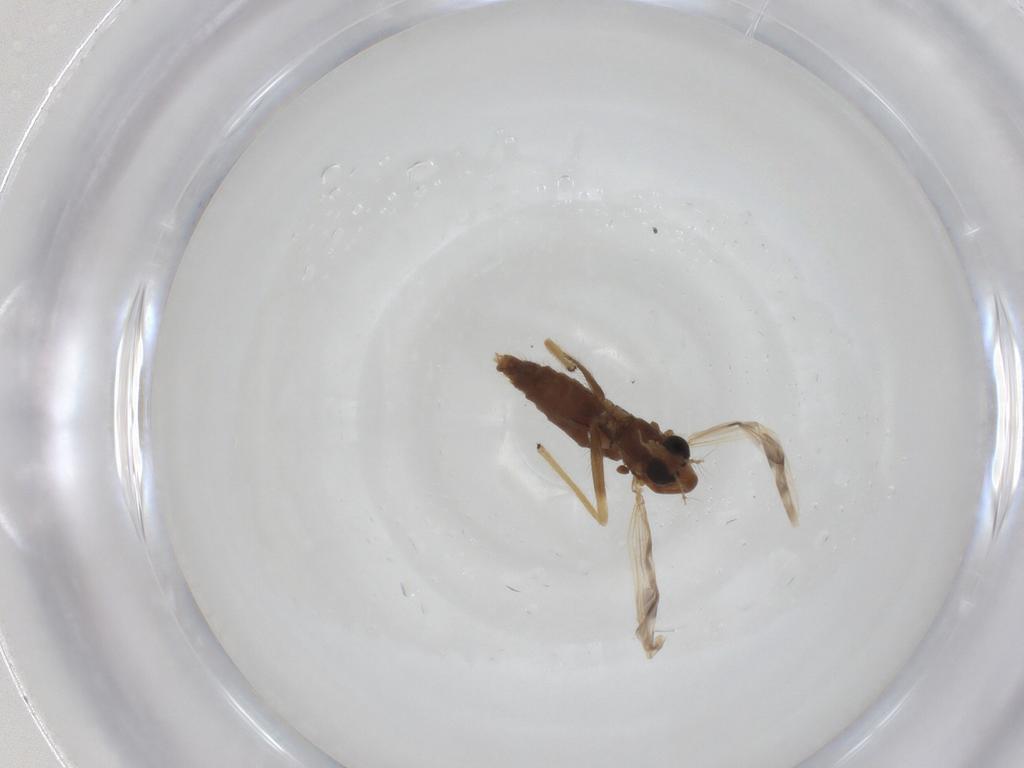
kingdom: Animalia
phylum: Arthropoda
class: Insecta
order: Diptera
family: Chironomidae
